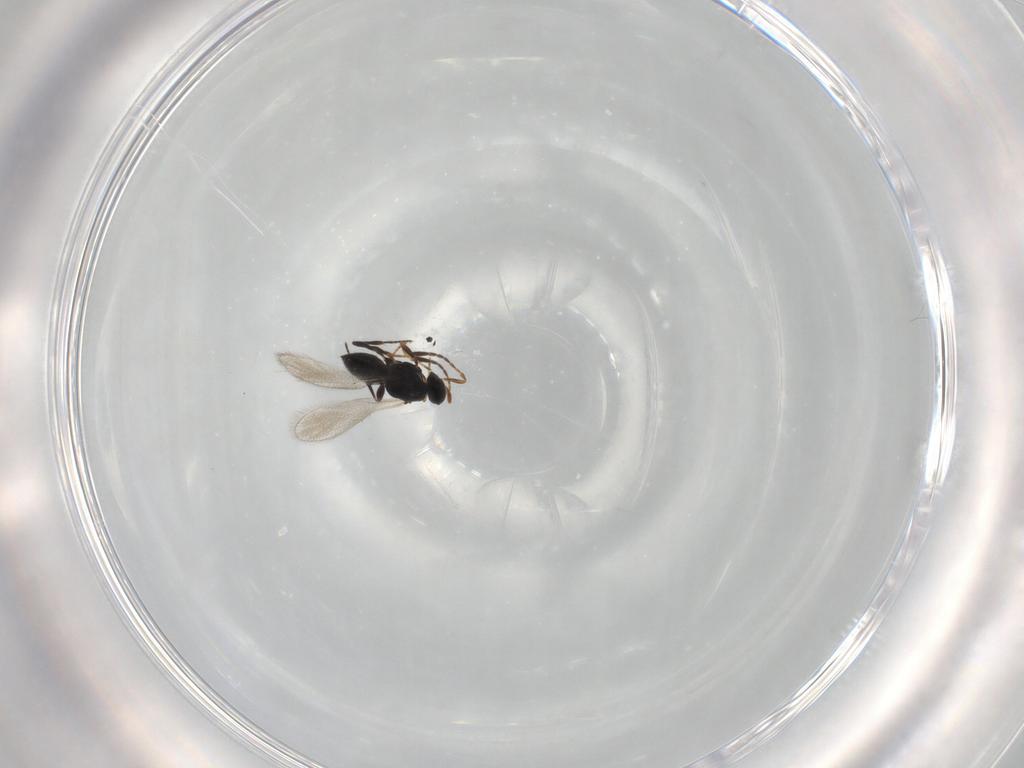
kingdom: Animalia
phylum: Arthropoda
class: Insecta
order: Hymenoptera
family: Platygastridae
